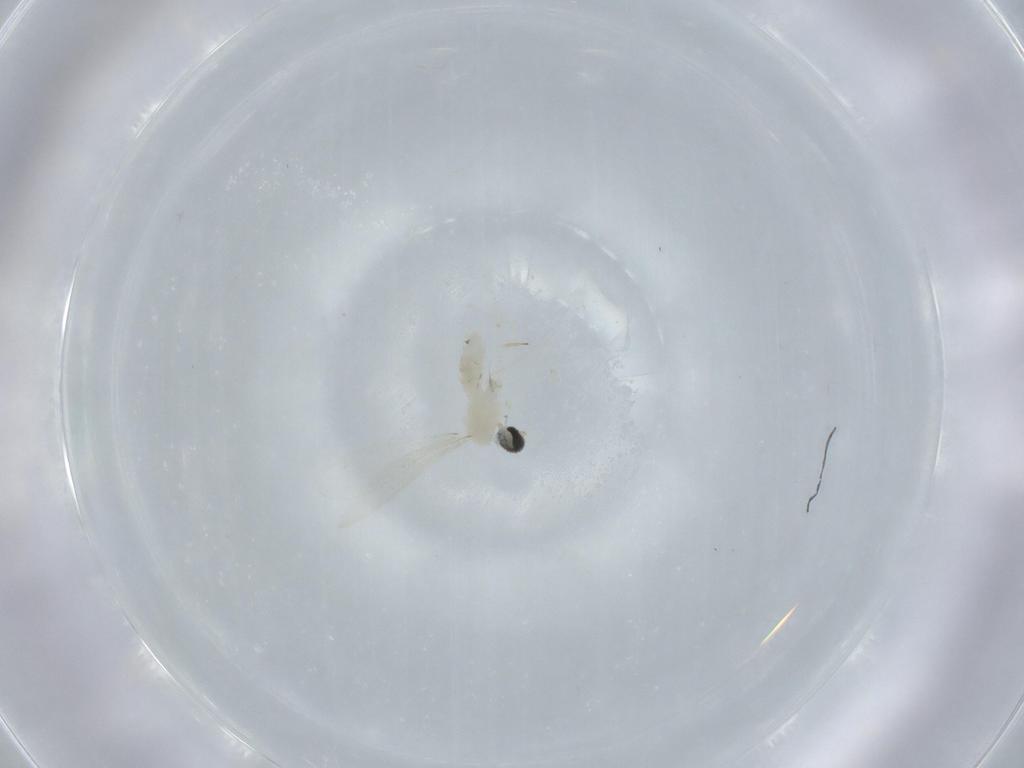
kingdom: Animalia
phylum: Arthropoda
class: Insecta
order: Diptera
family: Cecidomyiidae
